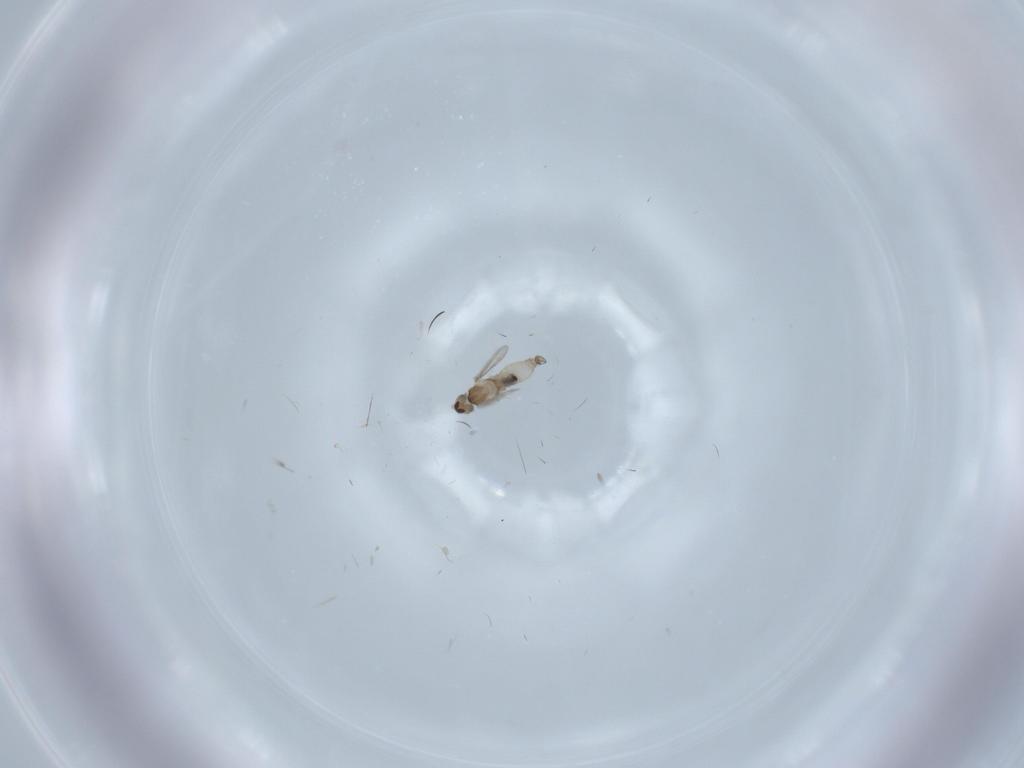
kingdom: Animalia
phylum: Arthropoda
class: Insecta
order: Diptera
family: Cecidomyiidae
